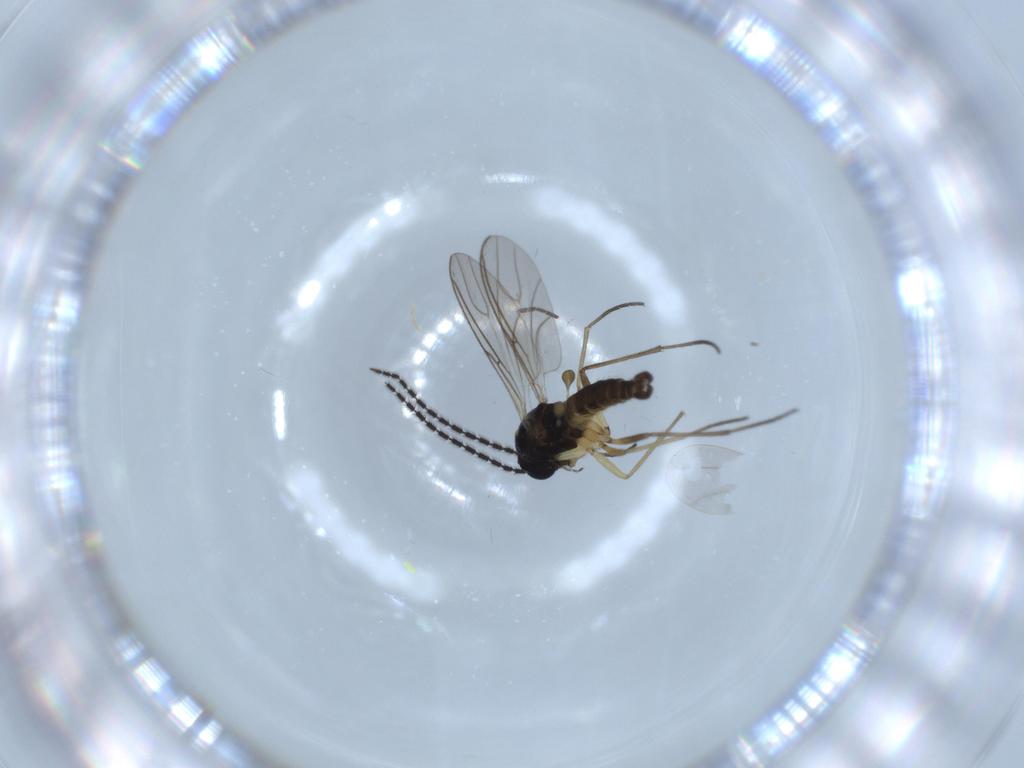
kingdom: Animalia
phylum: Arthropoda
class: Insecta
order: Diptera
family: Sciaridae
